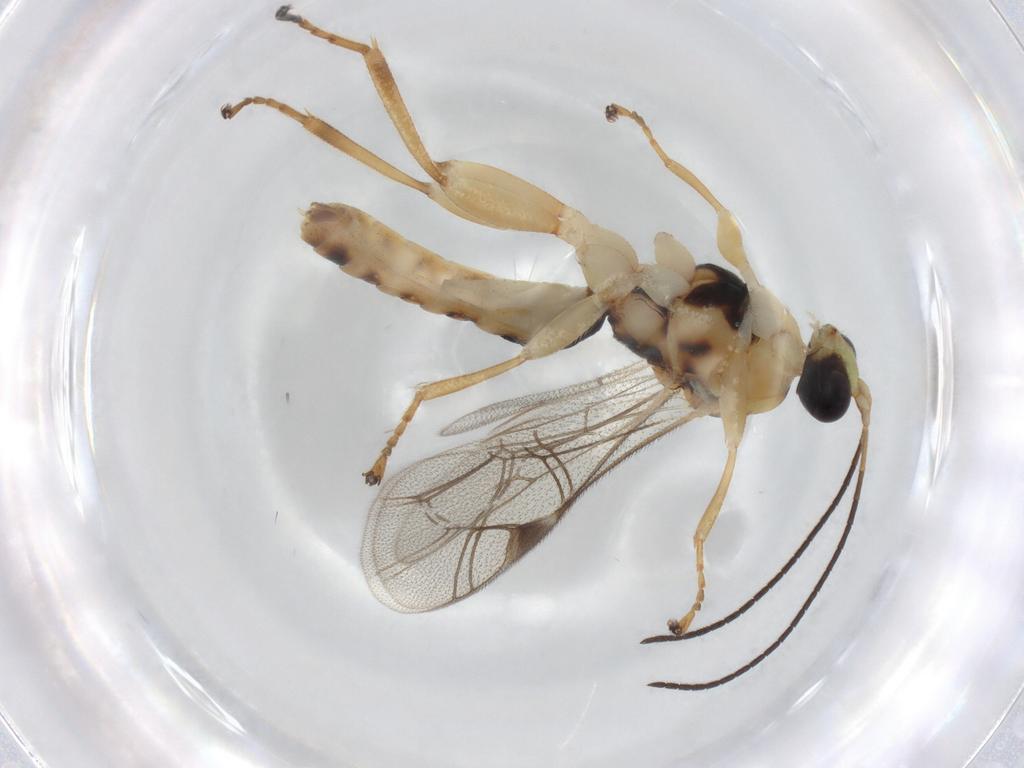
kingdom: Animalia
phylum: Arthropoda
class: Insecta
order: Hymenoptera
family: Ichneumonidae
